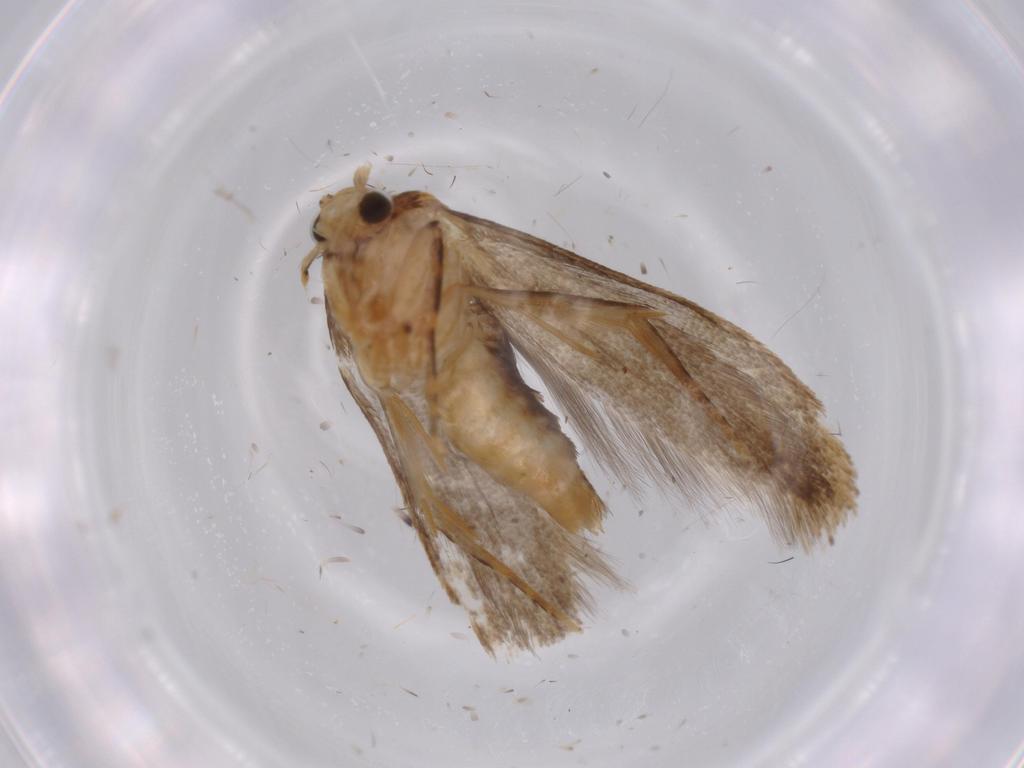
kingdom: Animalia
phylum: Arthropoda
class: Insecta
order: Lepidoptera
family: Tineidae
